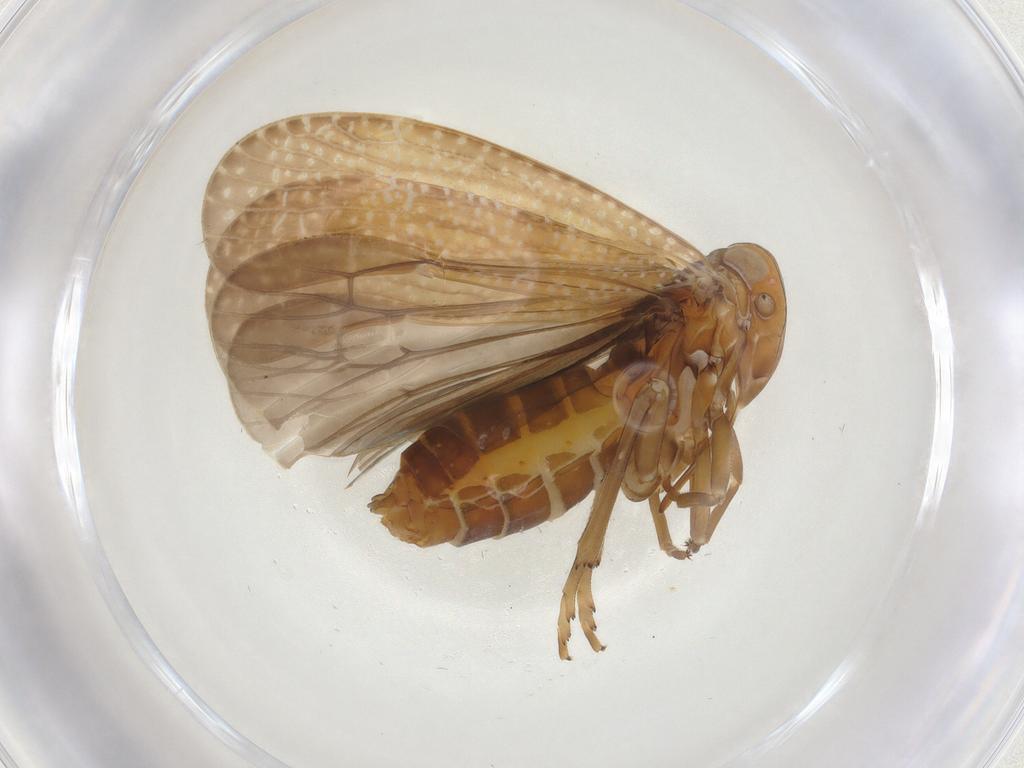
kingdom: Animalia
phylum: Arthropoda
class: Insecta
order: Hemiptera
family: Achilidae
